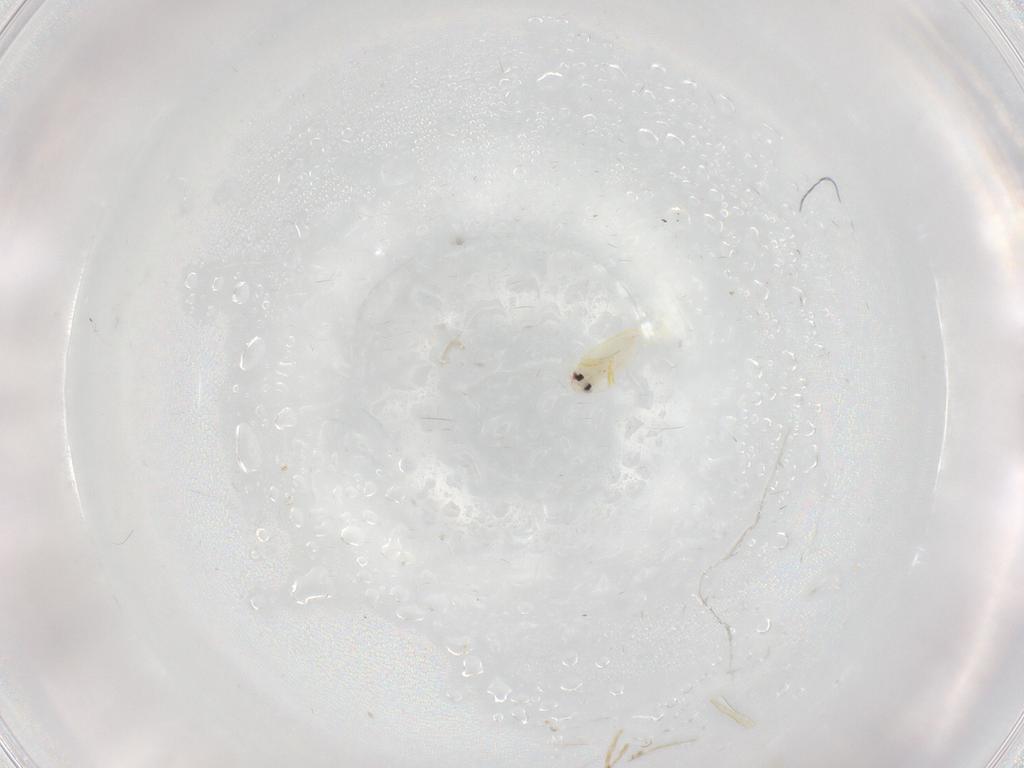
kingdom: Animalia
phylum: Arthropoda
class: Insecta
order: Hemiptera
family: Aleyrodidae
